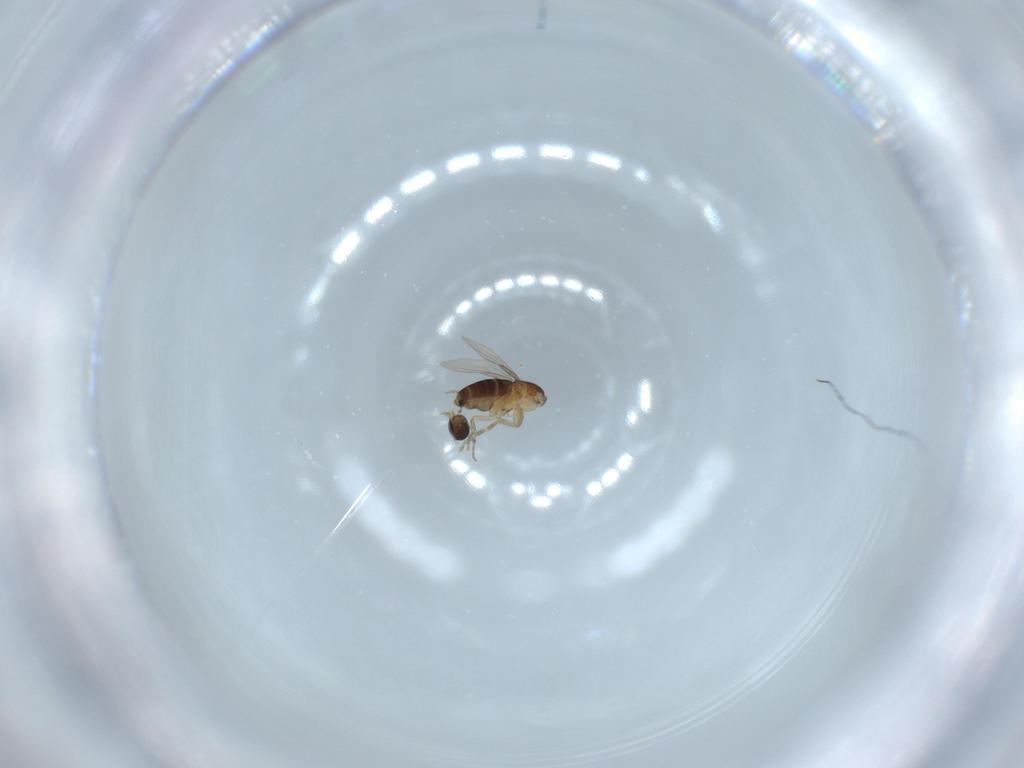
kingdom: Animalia
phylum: Arthropoda
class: Insecta
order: Diptera
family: Phoridae
